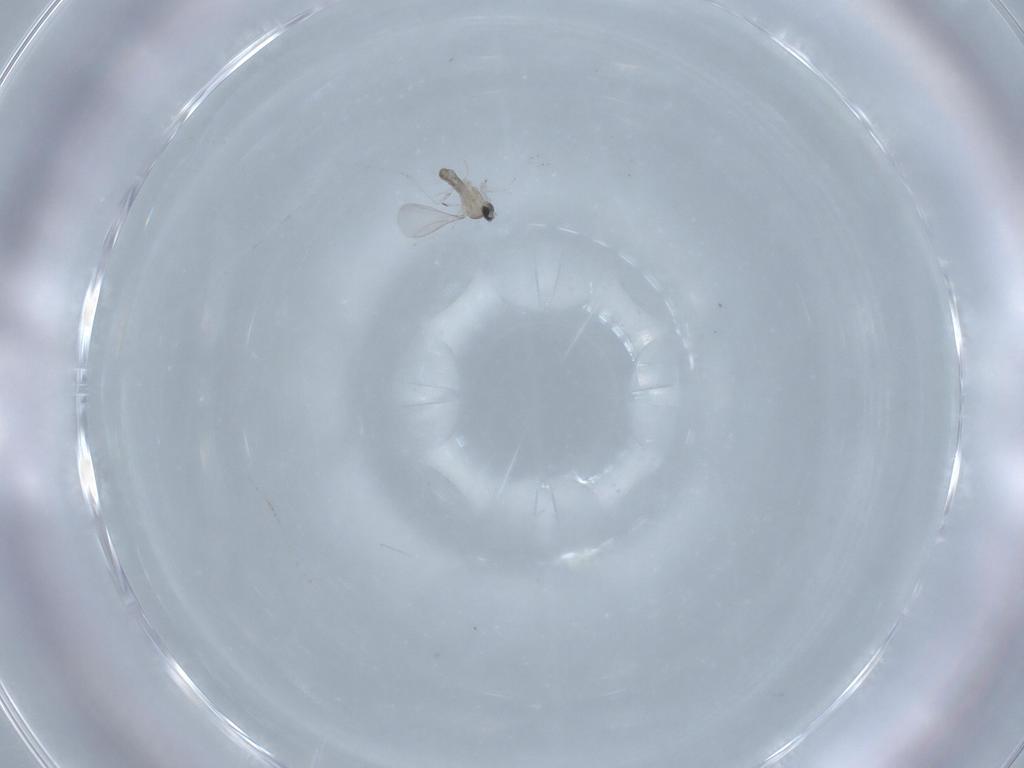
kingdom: Animalia
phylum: Arthropoda
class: Insecta
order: Diptera
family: Cecidomyiidae
